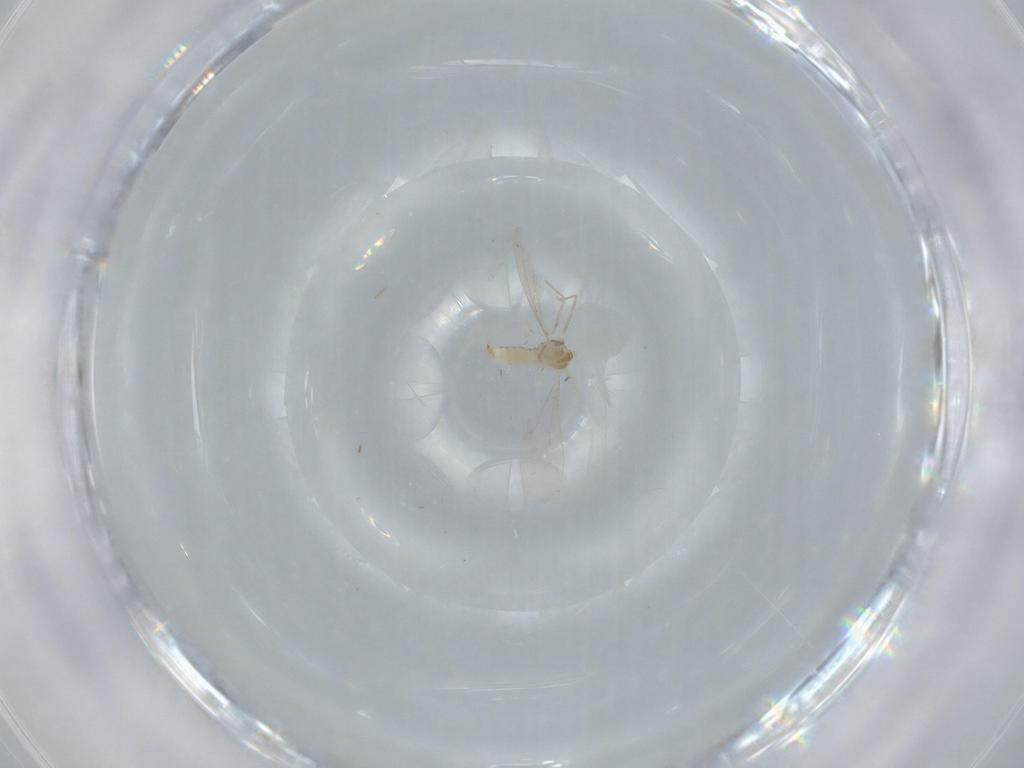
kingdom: Animalia
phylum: Arthropoda
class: Insecta
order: Diptera
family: Cecidomyiidae
